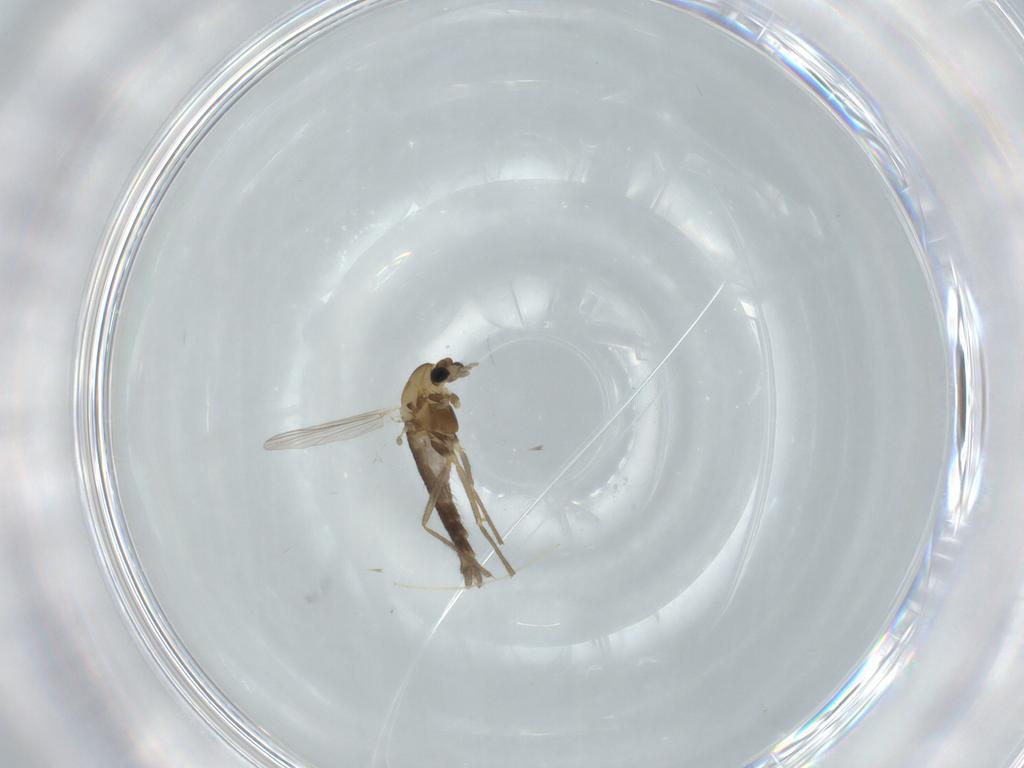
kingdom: Animalia
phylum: Arthropoda
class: Insecta
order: Diptera
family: Chironomidae
